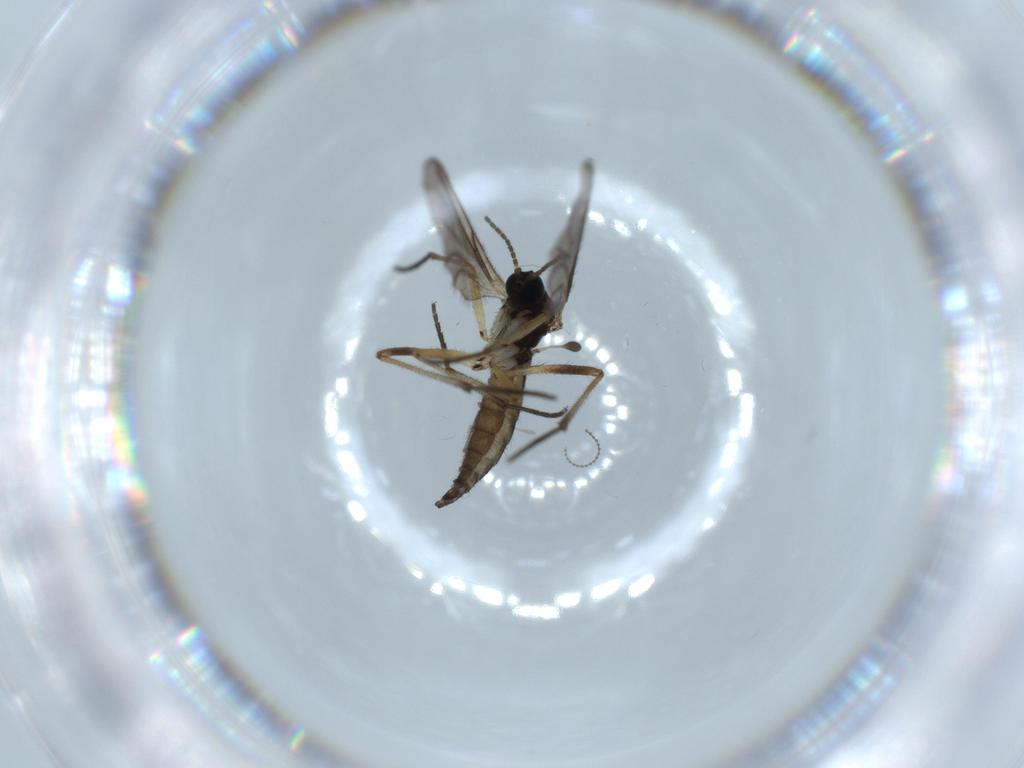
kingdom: Animalia
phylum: Arthropoda
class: Insecta
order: Diptera
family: Sciaridae
